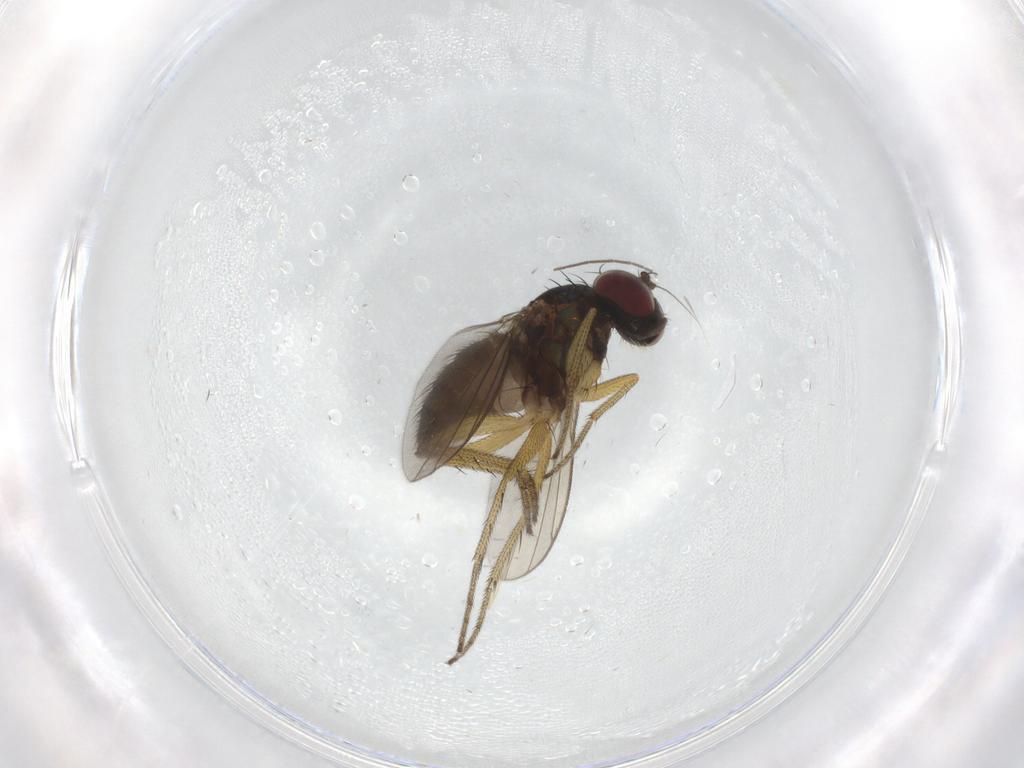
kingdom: Animalia
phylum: Arthropoda
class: Insecta
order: Diptera
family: Chironomidae
